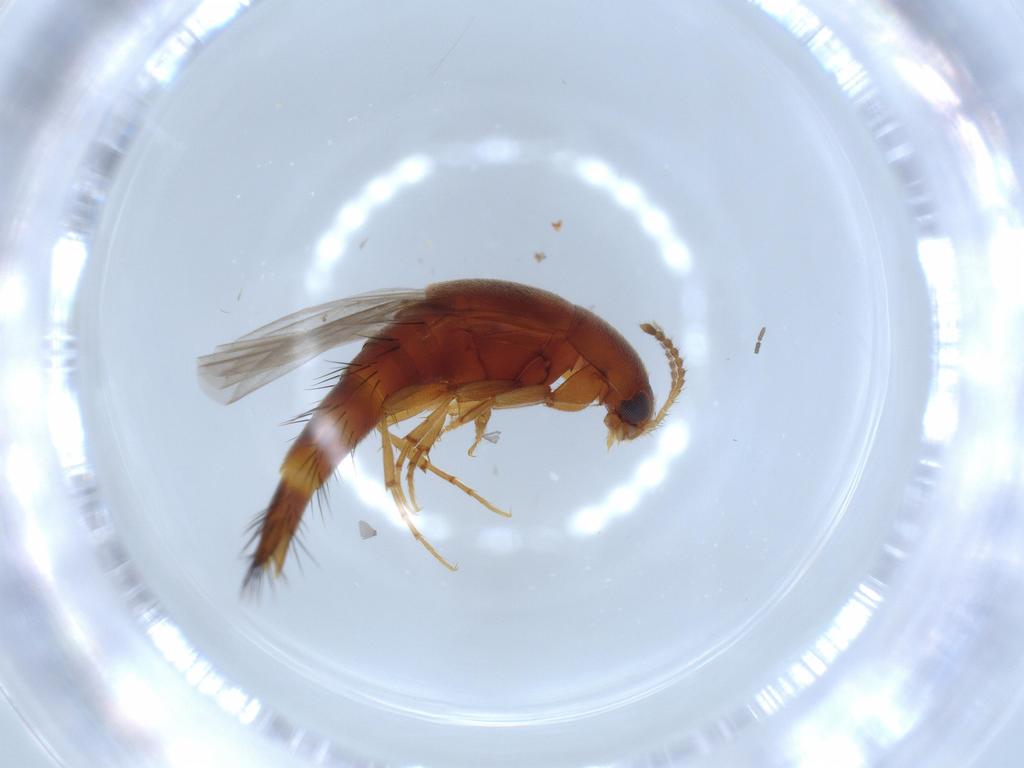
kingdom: Animalia
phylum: Arthropoda
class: Insecta
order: Coleoptera
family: Staphylinidae
